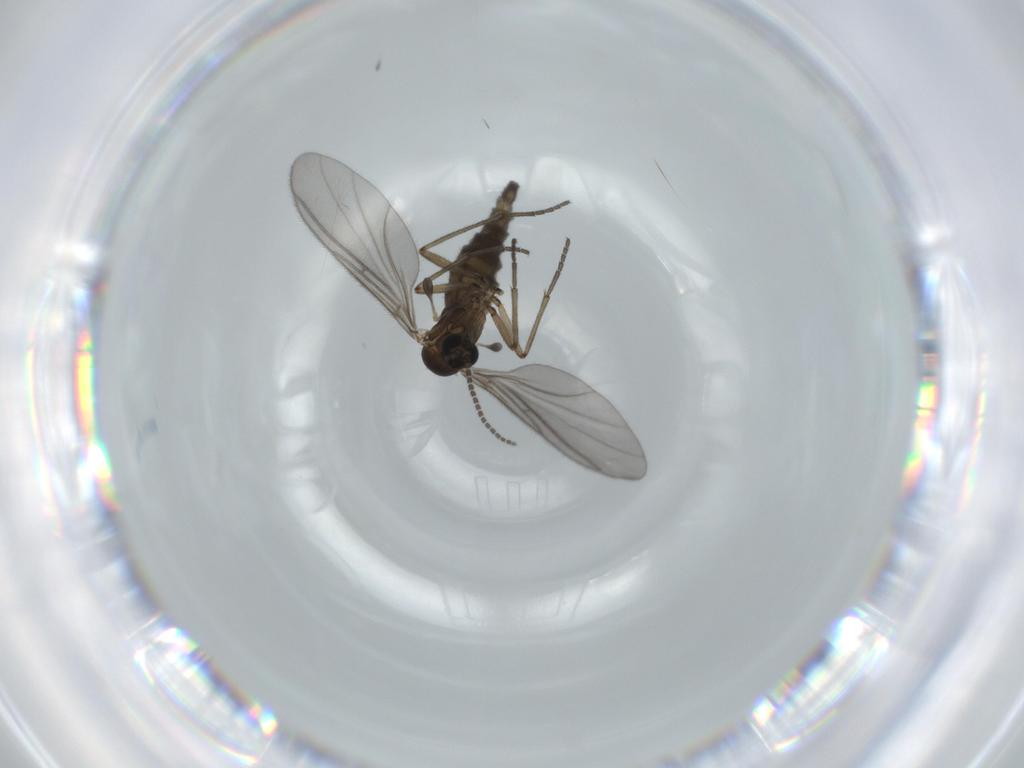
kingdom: Animalia
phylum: Arthropoda
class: Insecta
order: Diptera
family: Sciaridae
